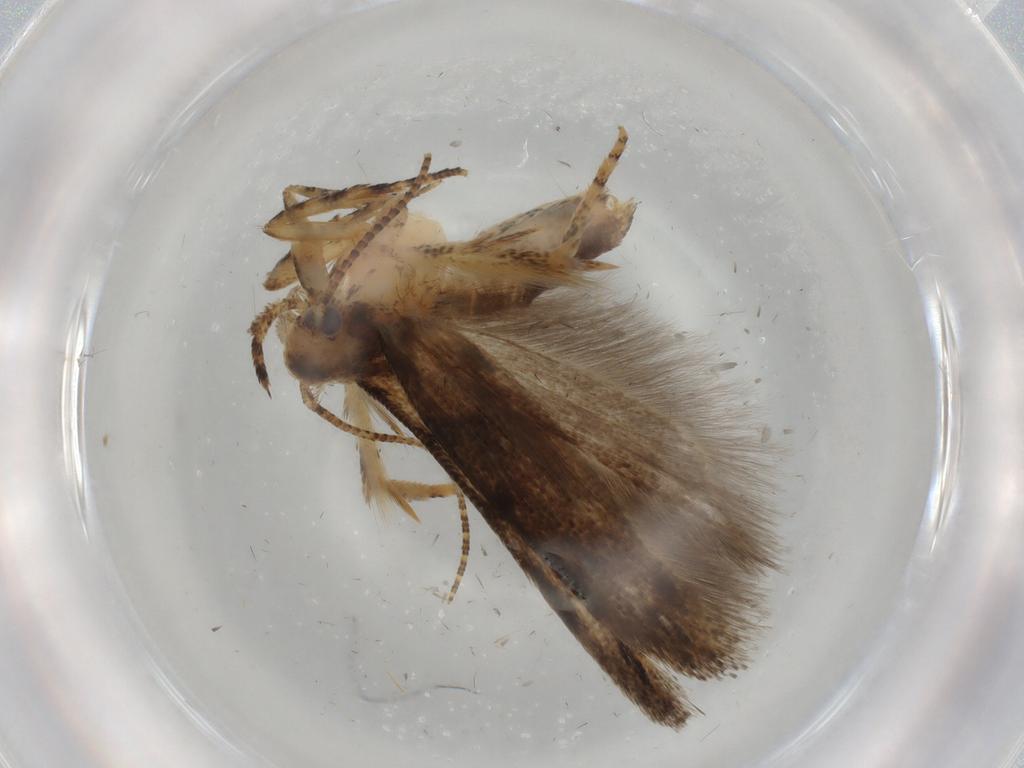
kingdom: Animalia
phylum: Arthropoda
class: Insecta
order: Lepidoptera
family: Gelechiidae
